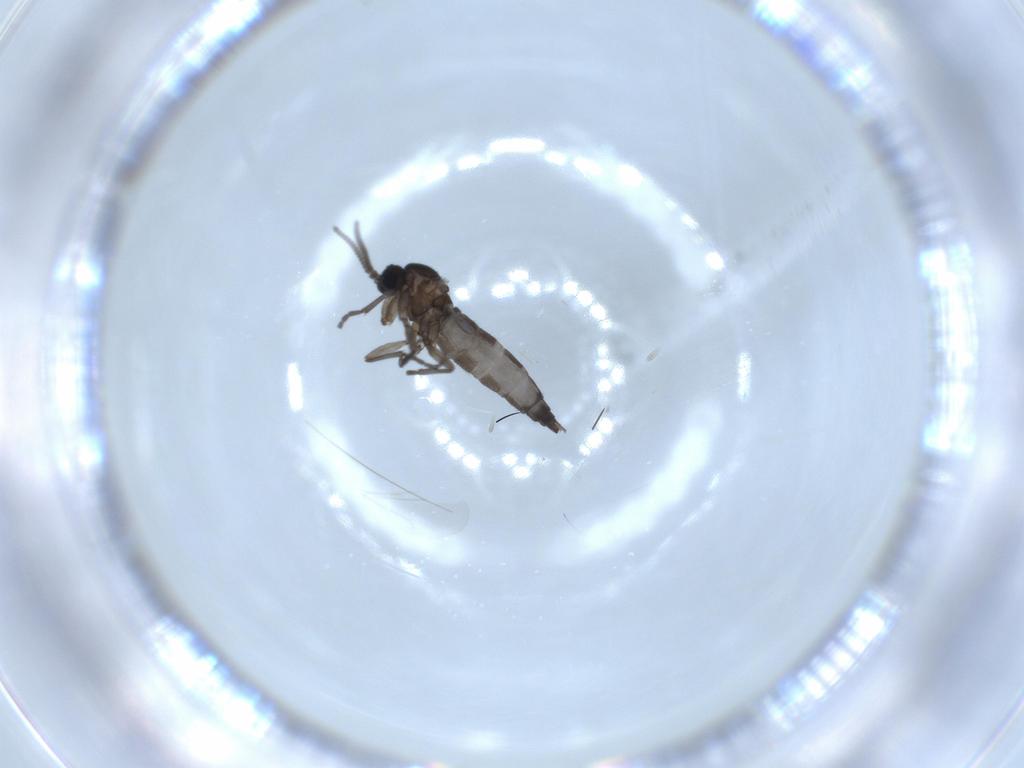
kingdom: Animalia
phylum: Arthropoda
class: Insecta
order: Diptera
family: Sciaridae
